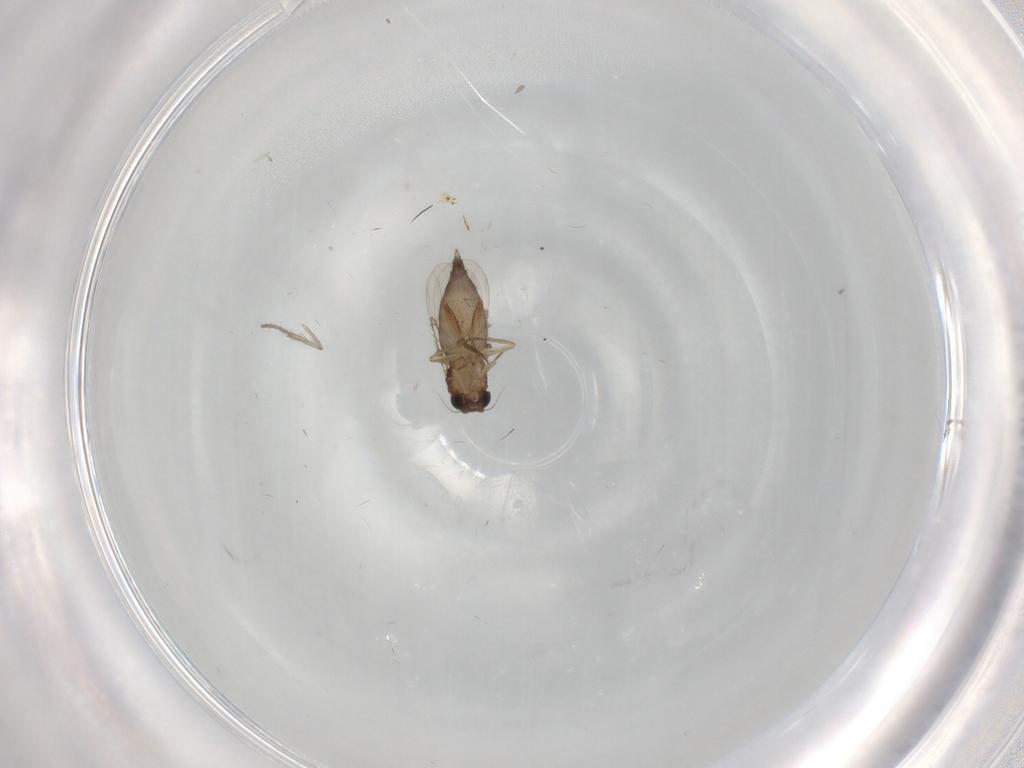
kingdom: Animalia
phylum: Arthropoda
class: Insecta
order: Diptera
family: Phoridae
